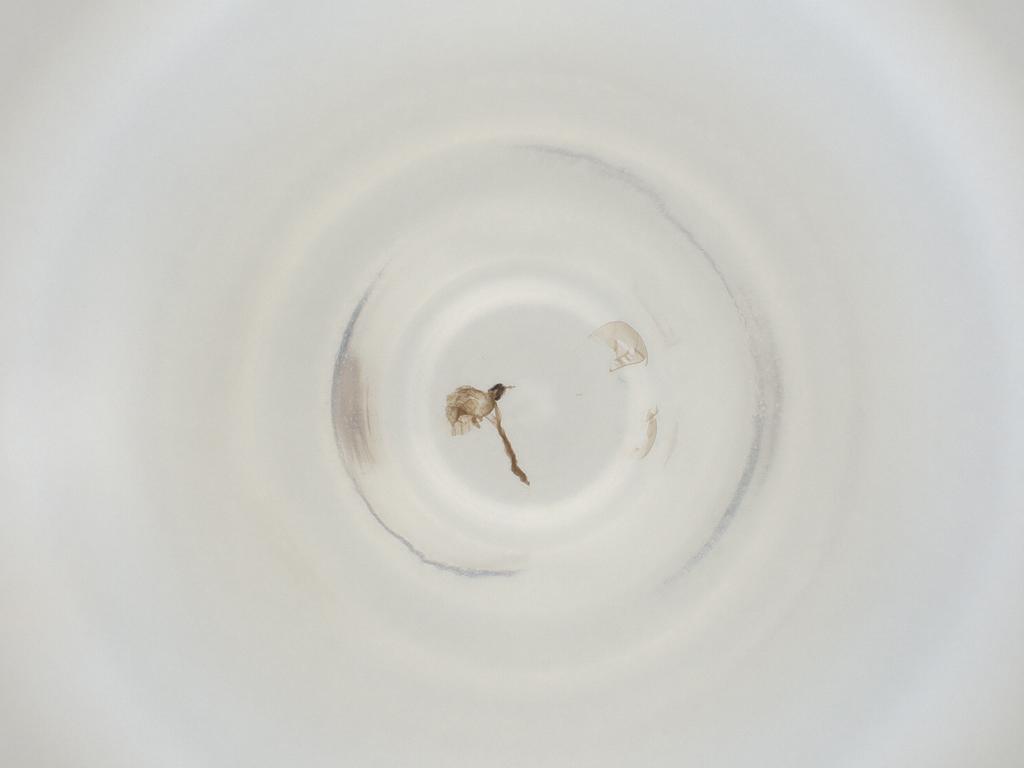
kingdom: Animalia
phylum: Arthropoda
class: Insecta
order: Diptera
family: Cecidomyiidae
